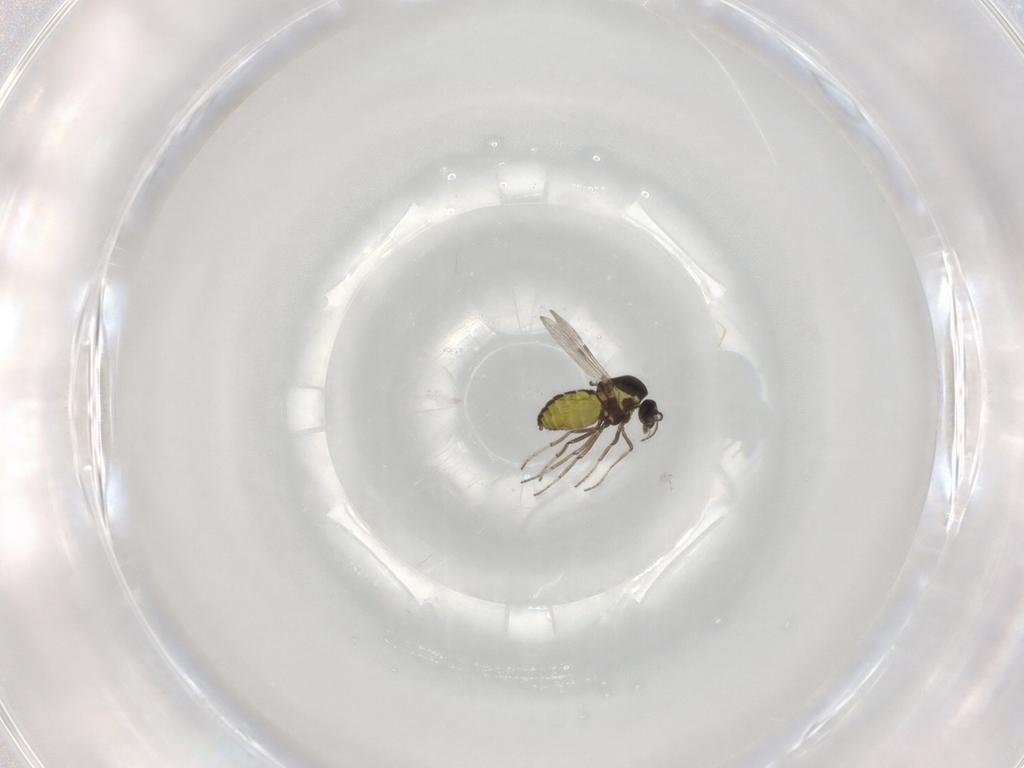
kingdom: Animalia
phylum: Arthropoda
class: Insecta
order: Diptera
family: Ceratopogonidae
